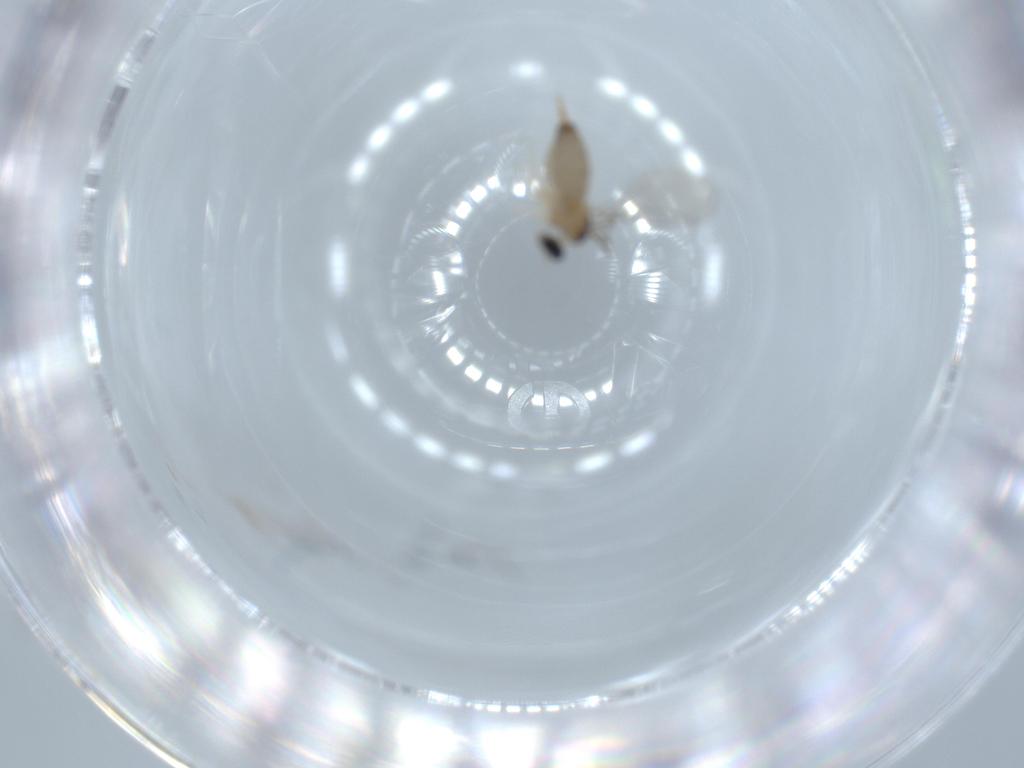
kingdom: Animalia
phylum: Arthropoda
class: Insecta
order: Diptera
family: Cecidomyiidae
